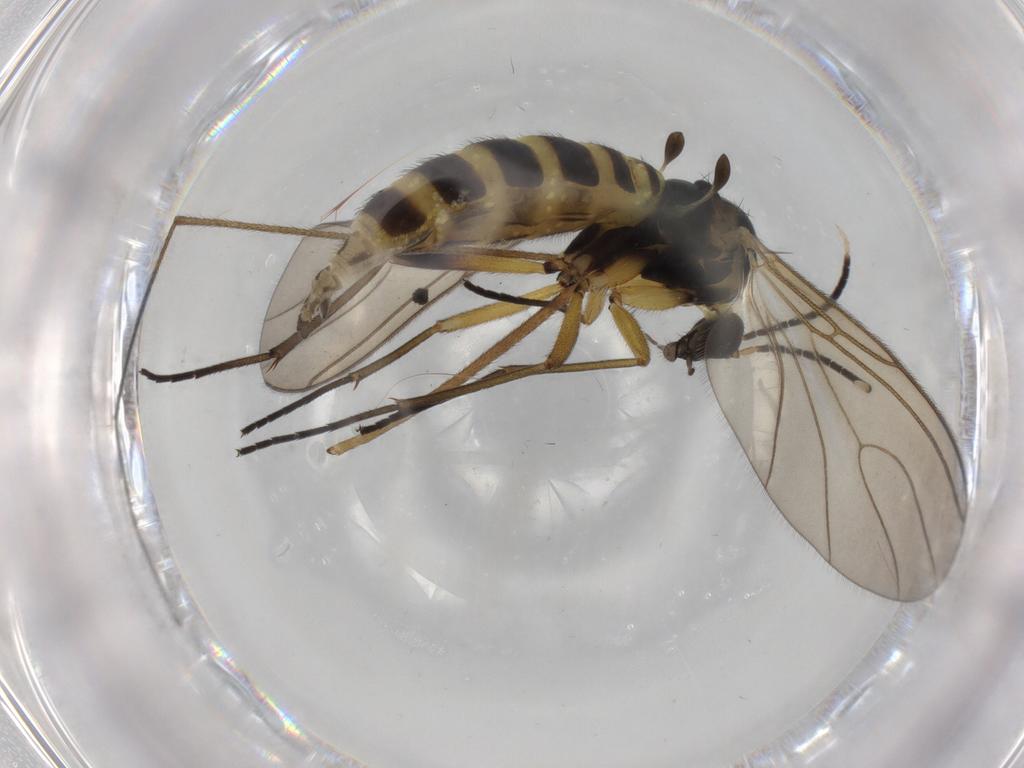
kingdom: Animalia
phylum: Arthropoda
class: Insecta
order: Diptera
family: Sciaridae
